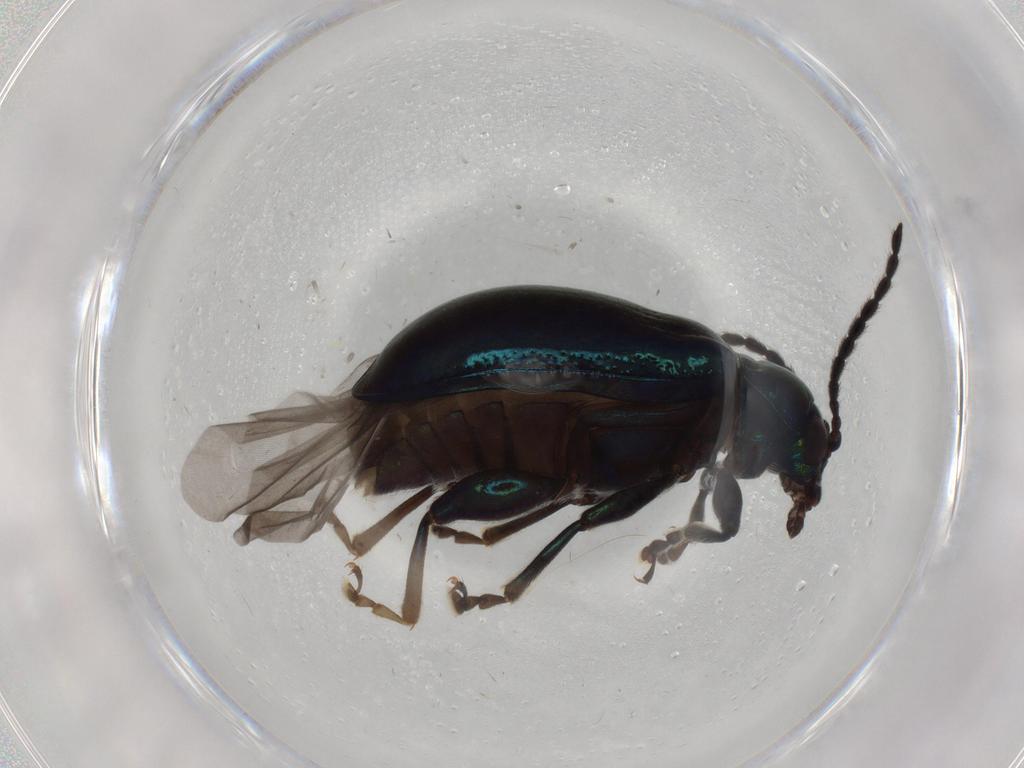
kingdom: Animalia
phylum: Arthropoda
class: Insecta
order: Coleoptera
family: Chrysomelidae
